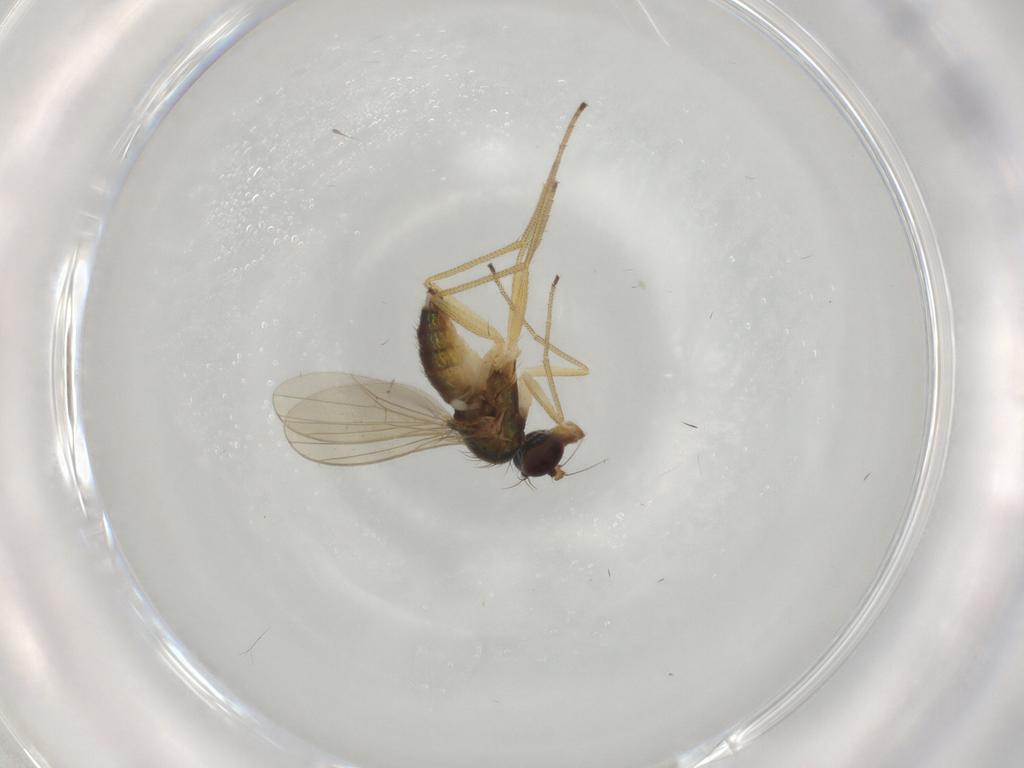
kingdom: Animalia
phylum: Arthropoda
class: Insecta
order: Diptera
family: Dolichopodidae
